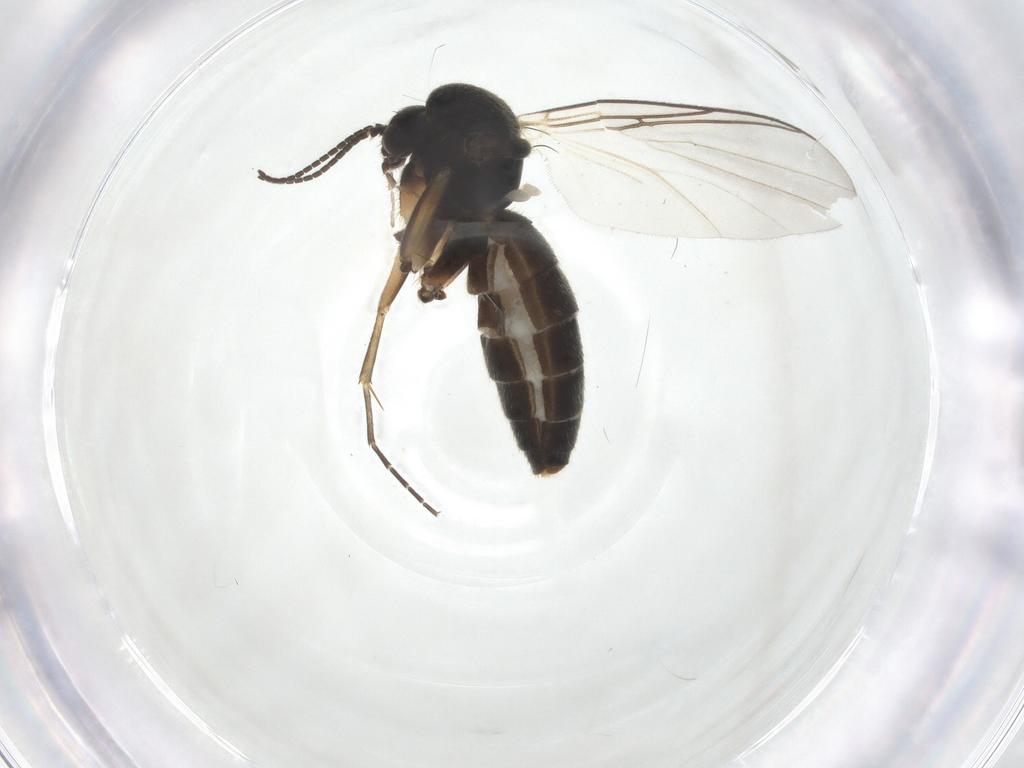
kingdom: Animalia
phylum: Arthropoda
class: Insecta
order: Diptera
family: Mycetophilidae
